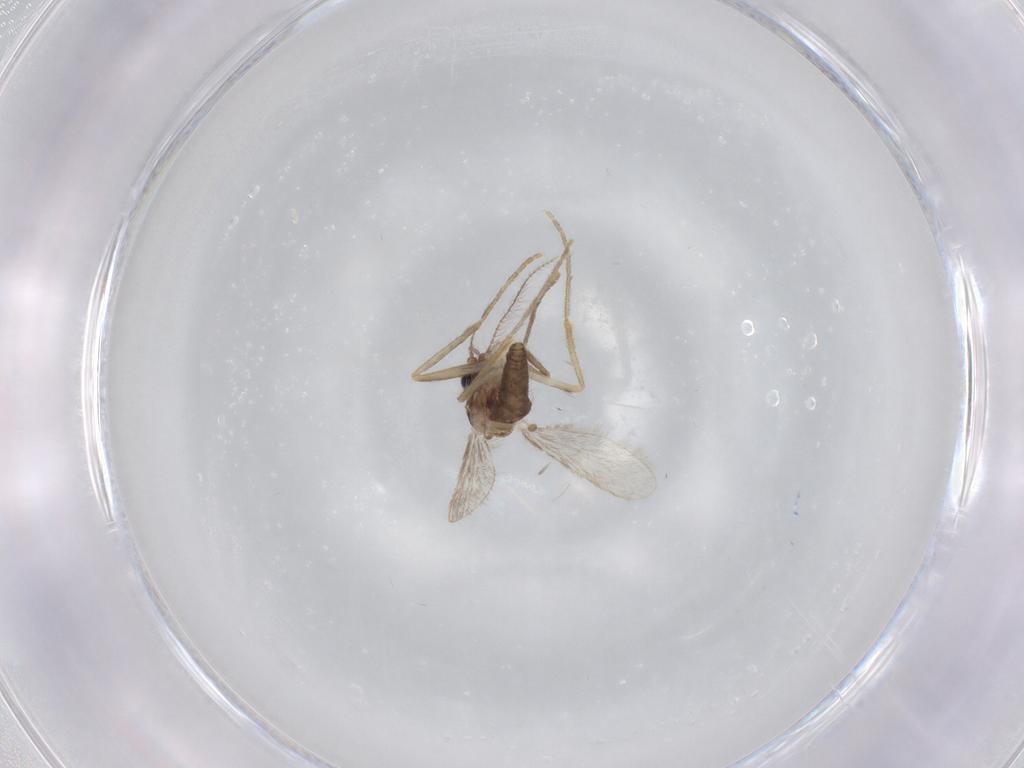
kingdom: Animalia
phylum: Arthropoda
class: Insecta
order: Diptera
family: Corethrellidae
